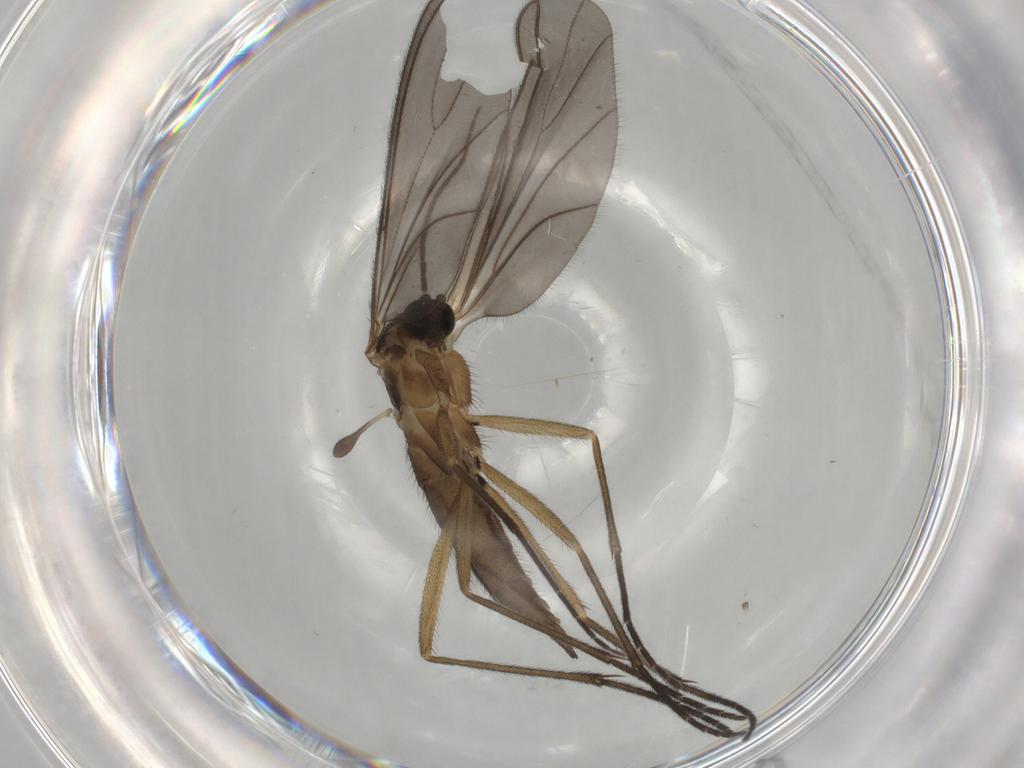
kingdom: Animalia
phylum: Arthropoda
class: Insecta
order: Diptera
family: Sciaridae
